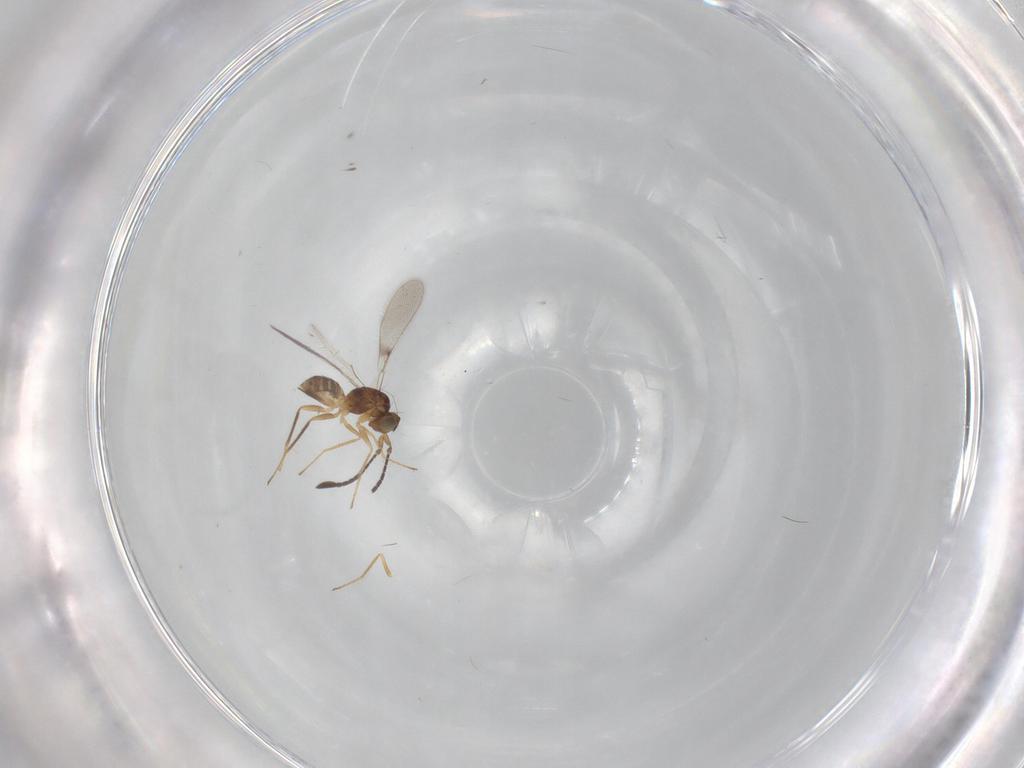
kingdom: Animalia
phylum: Arthropoda
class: Insecta
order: Hymenoptera
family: Mymaridae
